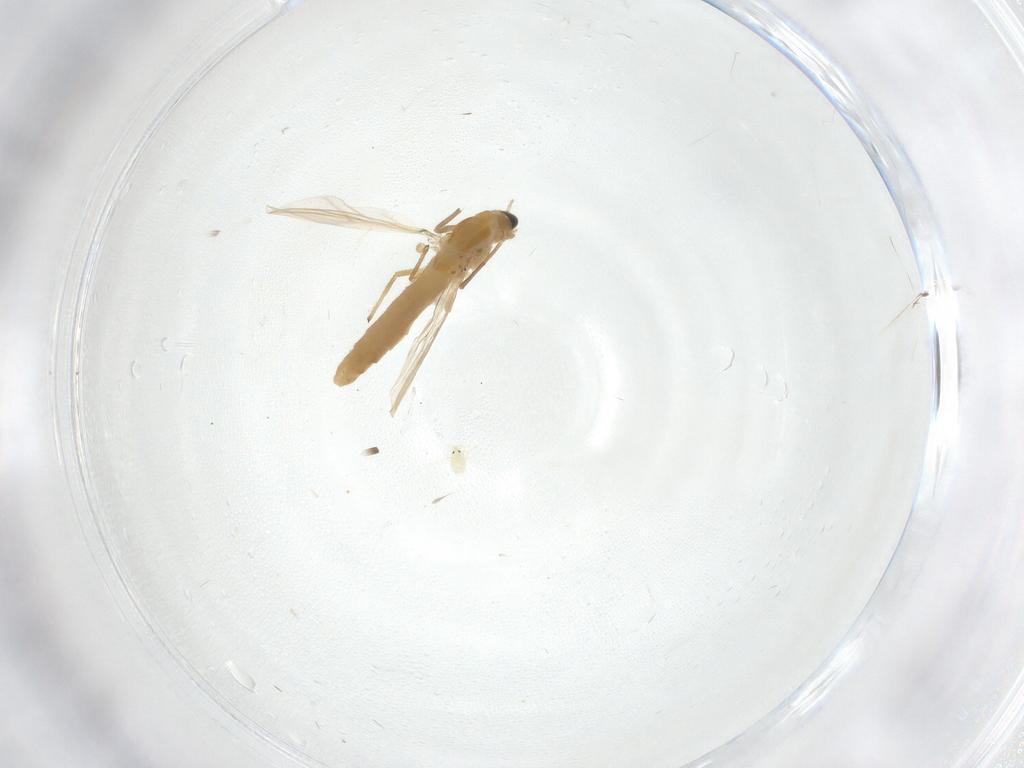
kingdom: Animalia
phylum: Arthropoda
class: Insecta
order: Diptera
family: Chironomidae
